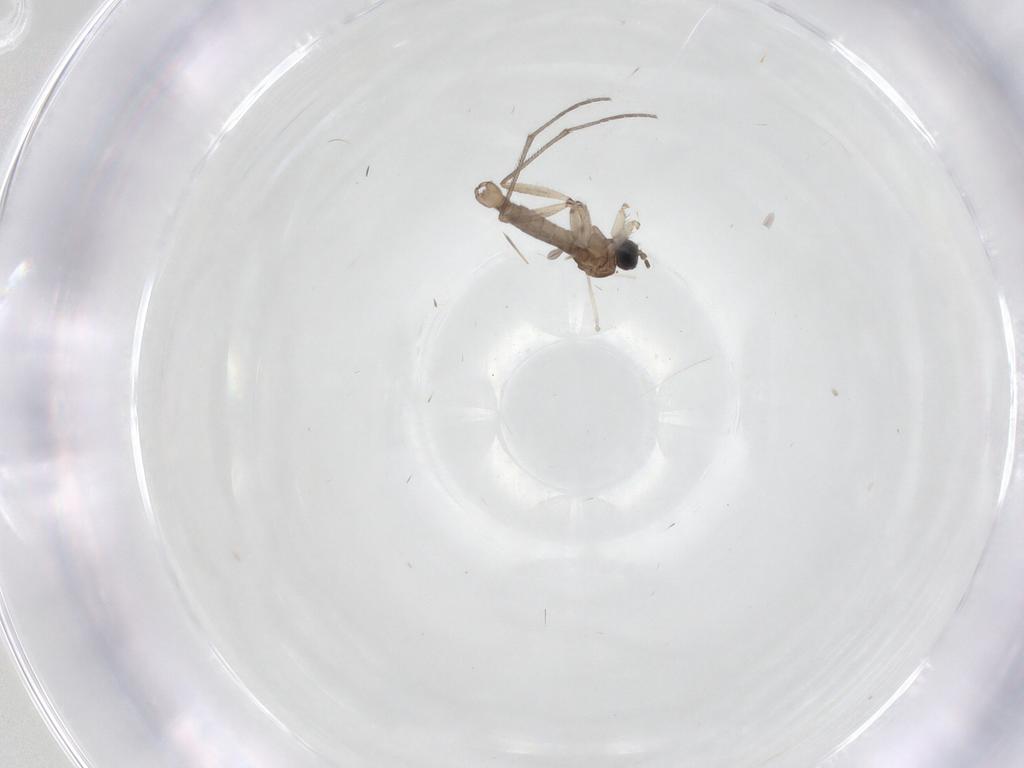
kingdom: Animalia
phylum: Arthropoda
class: Insecta
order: Diptera
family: Sciaridae
